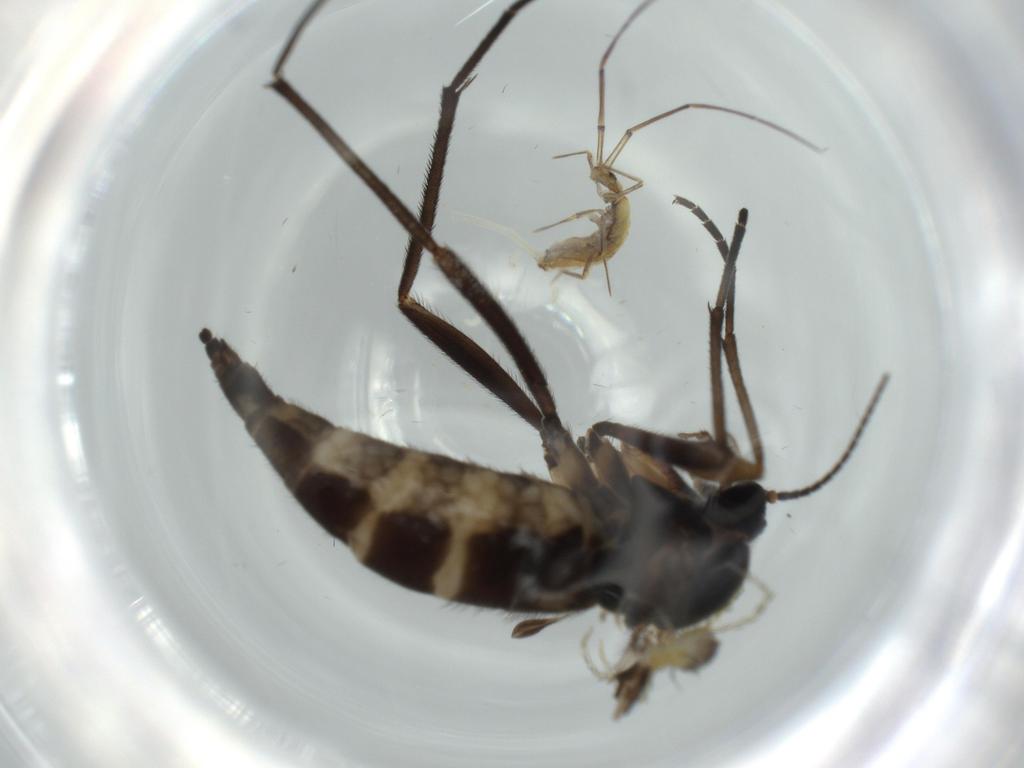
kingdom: Animalia
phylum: Arthropoda
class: Insecta
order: Diptera
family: Sciaridae
